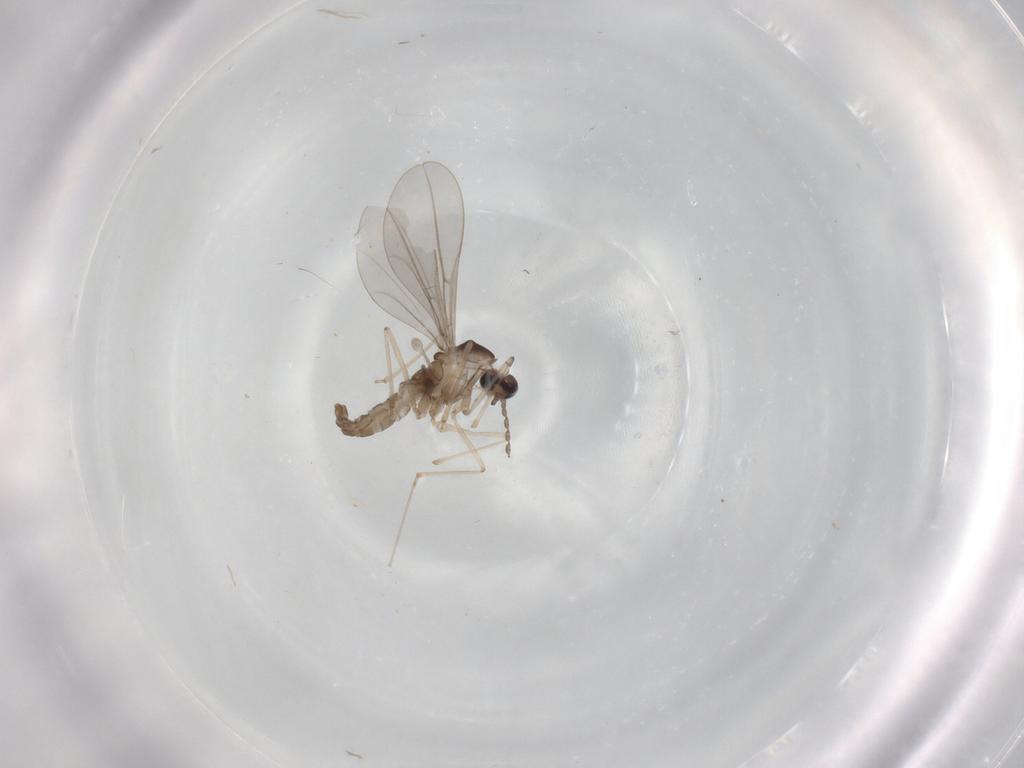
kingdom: Animalia
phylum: Arthropoda
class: Insecta
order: Diptera
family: Cecidomyiidae
